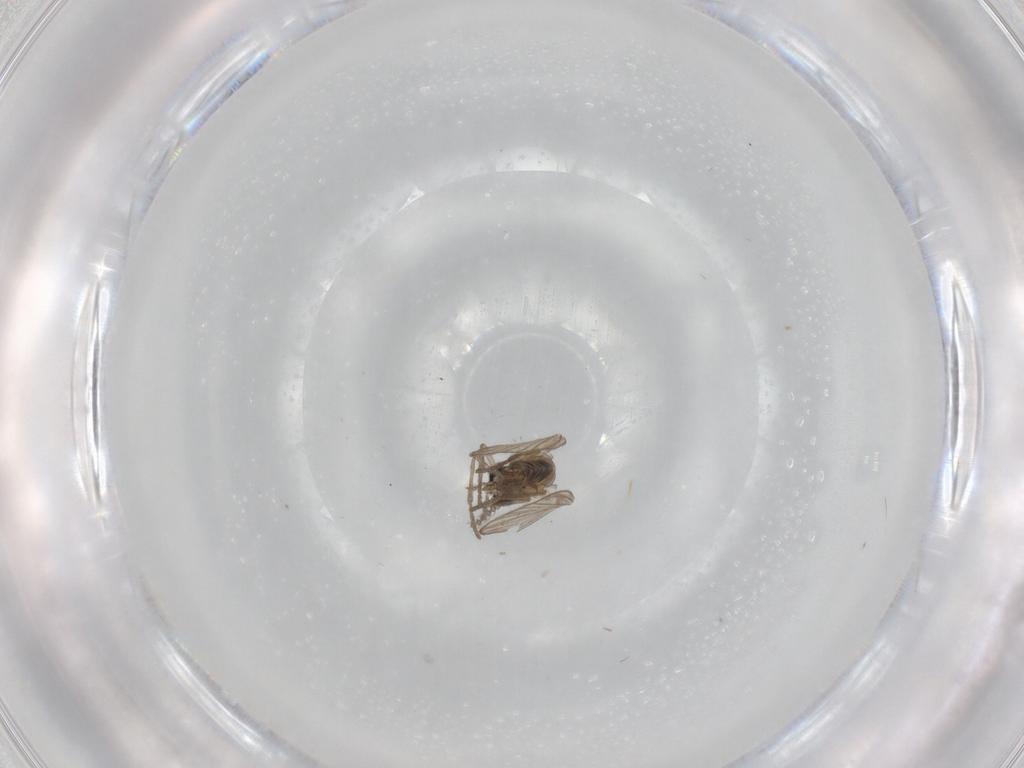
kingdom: Animalia
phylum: Arthropoda
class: Insecta
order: Diptera
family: Psychodidae
